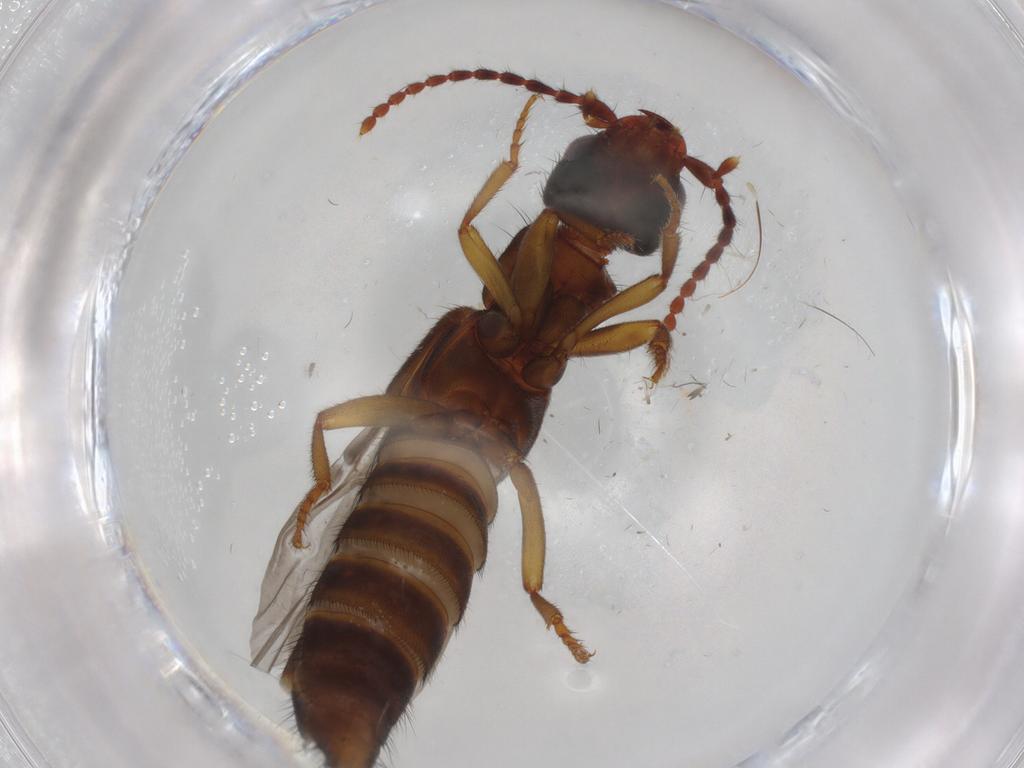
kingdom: Animalia
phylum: Arthropoda
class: Insecta
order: Coleoptera
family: Staphylinidae
